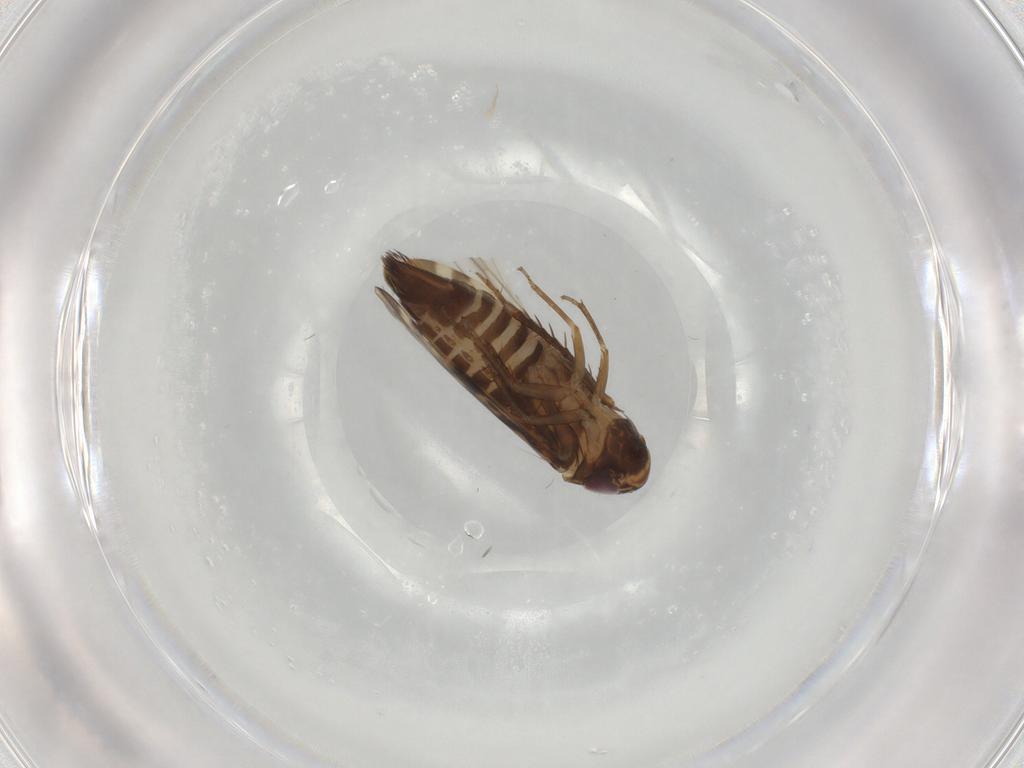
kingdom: Animalia
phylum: Arthropoda
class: Insecta
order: Hemiptera
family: Cicadellidae
